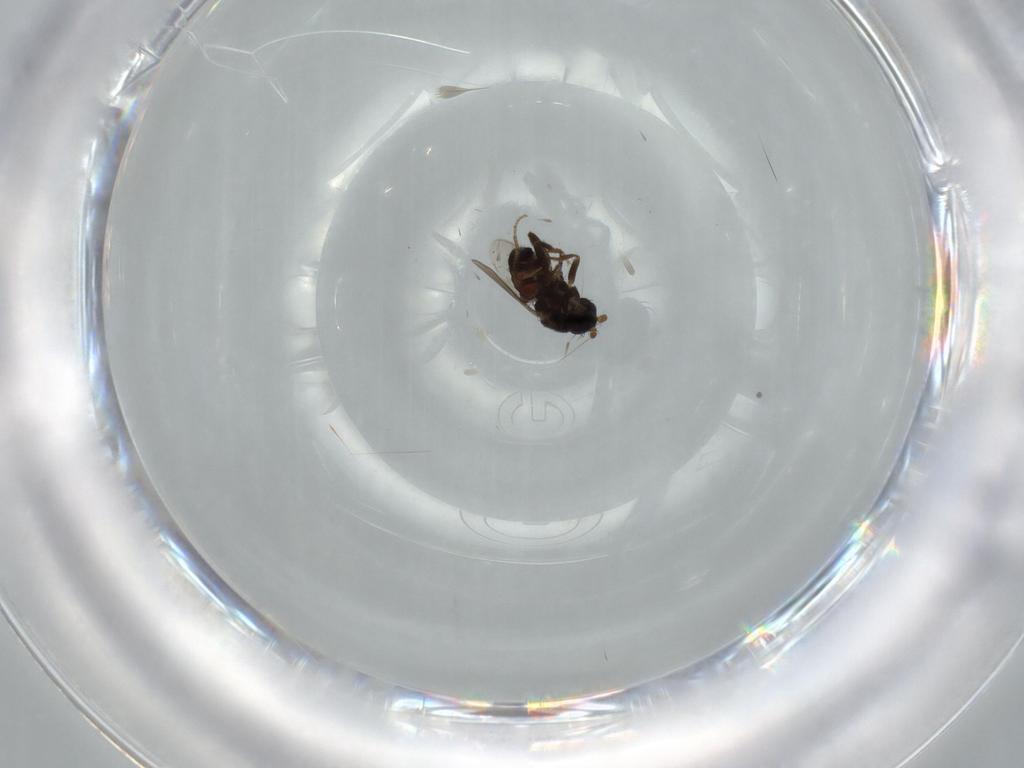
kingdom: Animalia
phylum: Arthropoda
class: Insecta
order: Diptera
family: Sphaeroceridae
